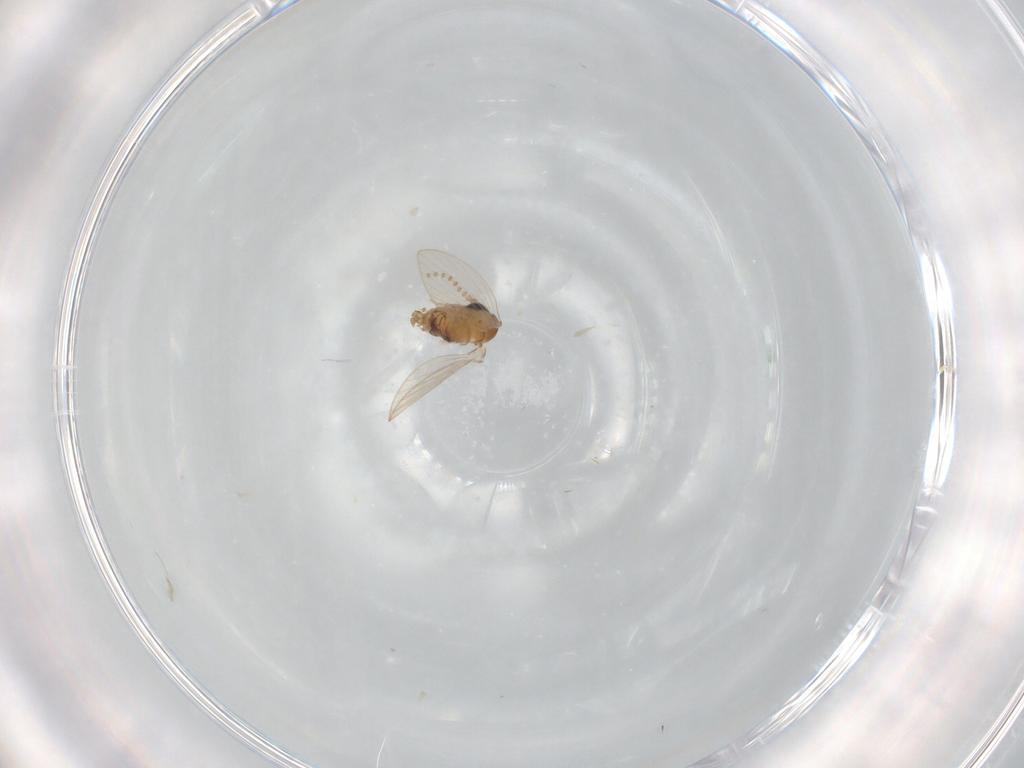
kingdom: Animalia
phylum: Arthropoda
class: Insecta
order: Diptera
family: Psychodidae
